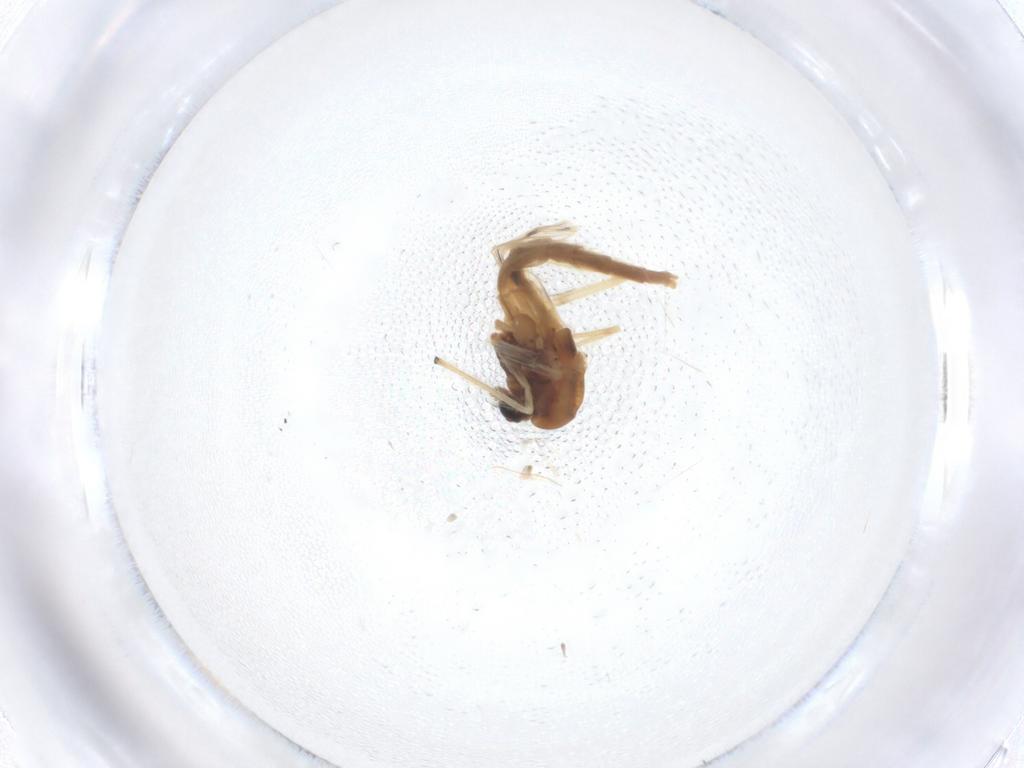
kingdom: Animalia
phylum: Arthropoda
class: Insecta
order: Diptera
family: Chironomidae
